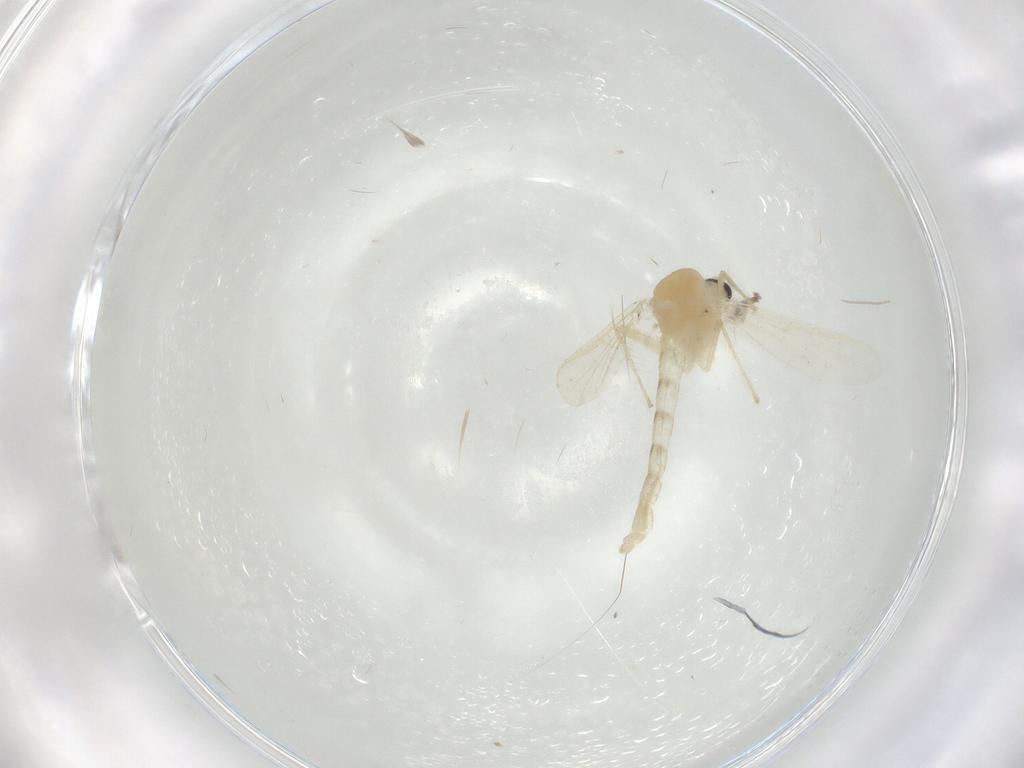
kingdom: Animalia
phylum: Arthropoda
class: Insecta
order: Diptera
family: Chironomidae
